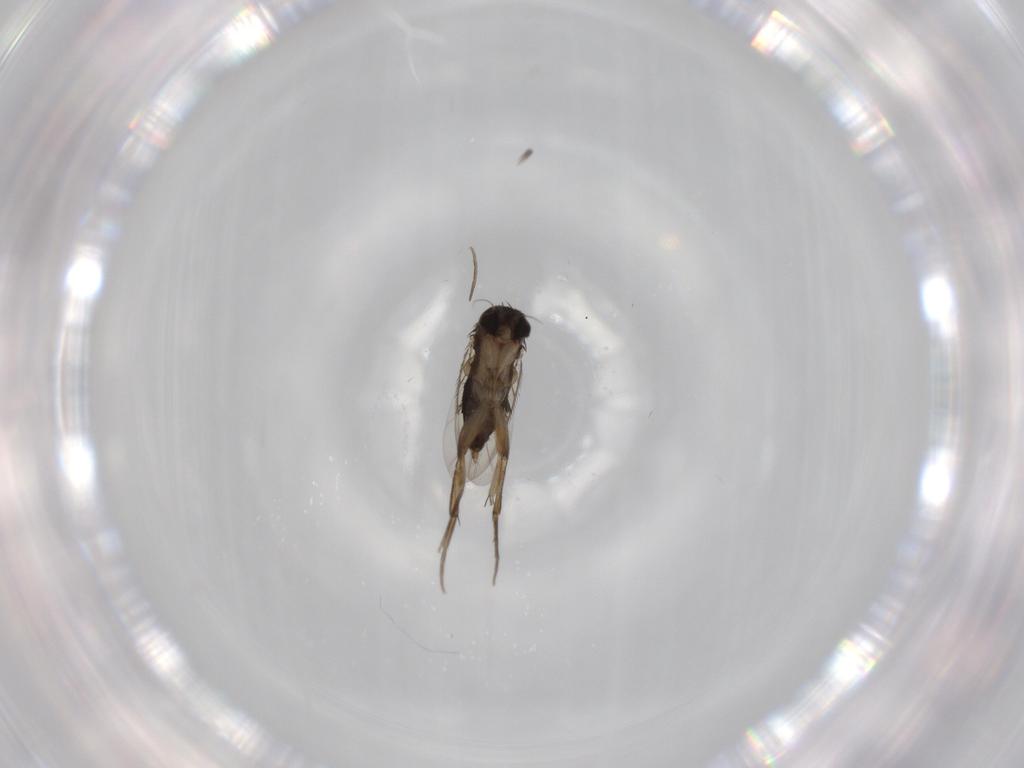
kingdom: Animalia
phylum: Arthropoda
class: Insecta
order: Diptera
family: Phoridae
